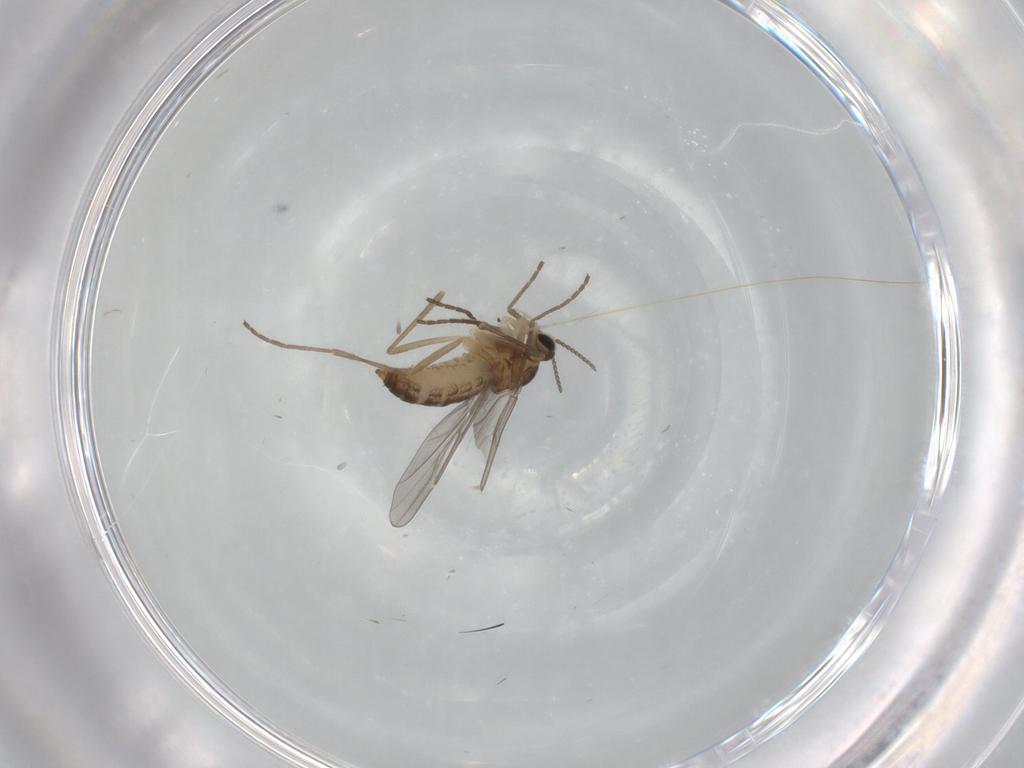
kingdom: Animalia
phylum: Arthropoda
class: Insecta
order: Diptera
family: Cecidomyiidae
